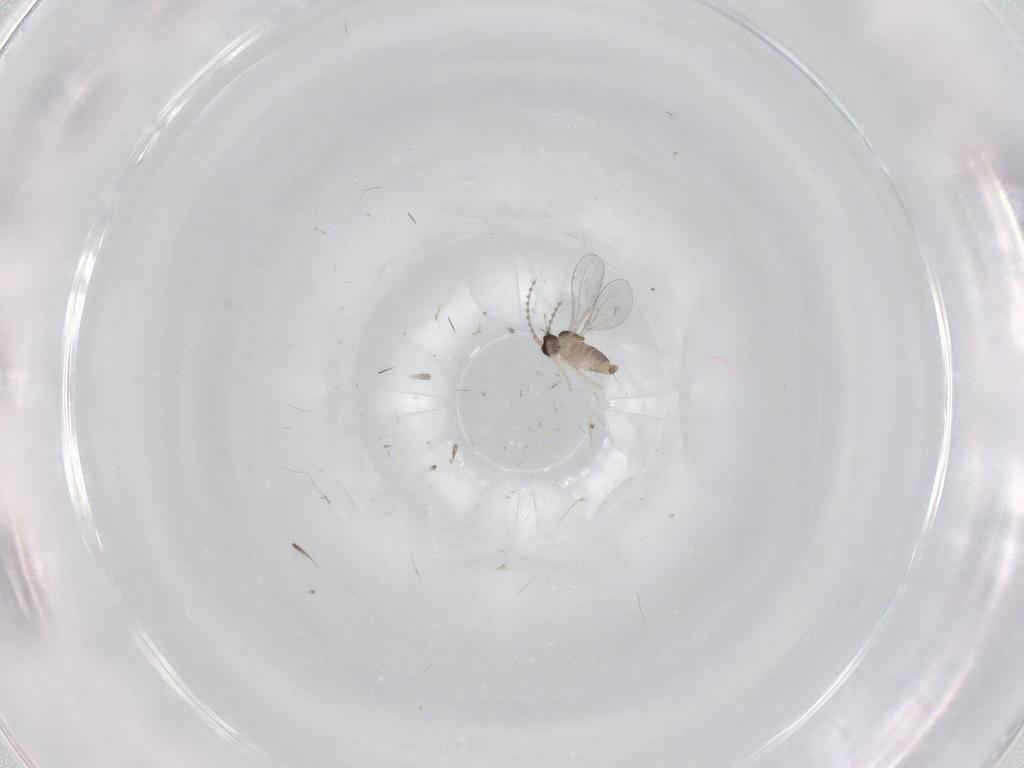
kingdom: Animalia
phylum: Arthropoda
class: Insecta
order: Diptera
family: Cecidomyiidae
